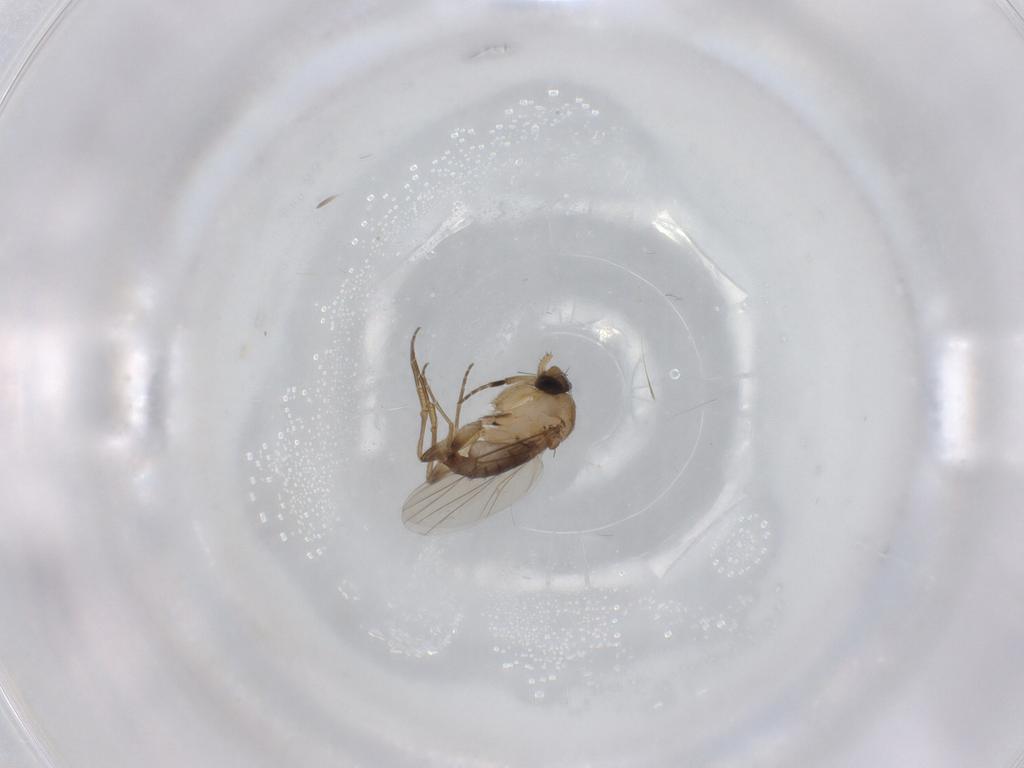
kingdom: Animalia
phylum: Arthropoda
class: Insecta
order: Diptera
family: Phoridae
